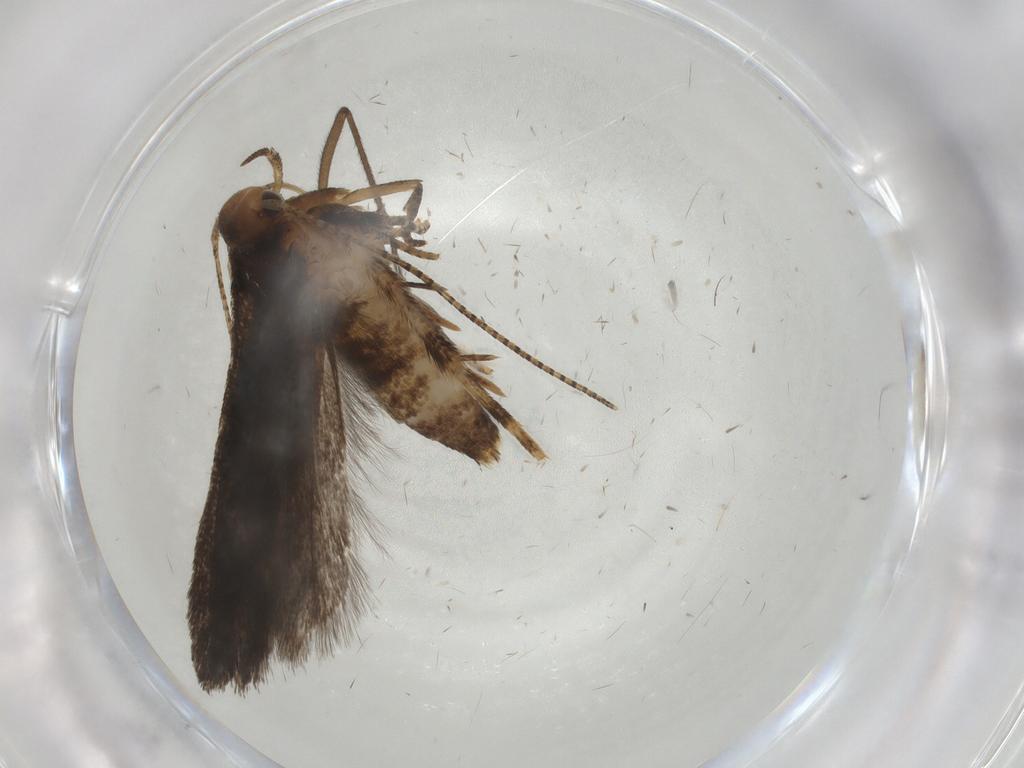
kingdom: Animalia
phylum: Arthropoda
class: Insecta
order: Lepidoptera
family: Gelechiidae
